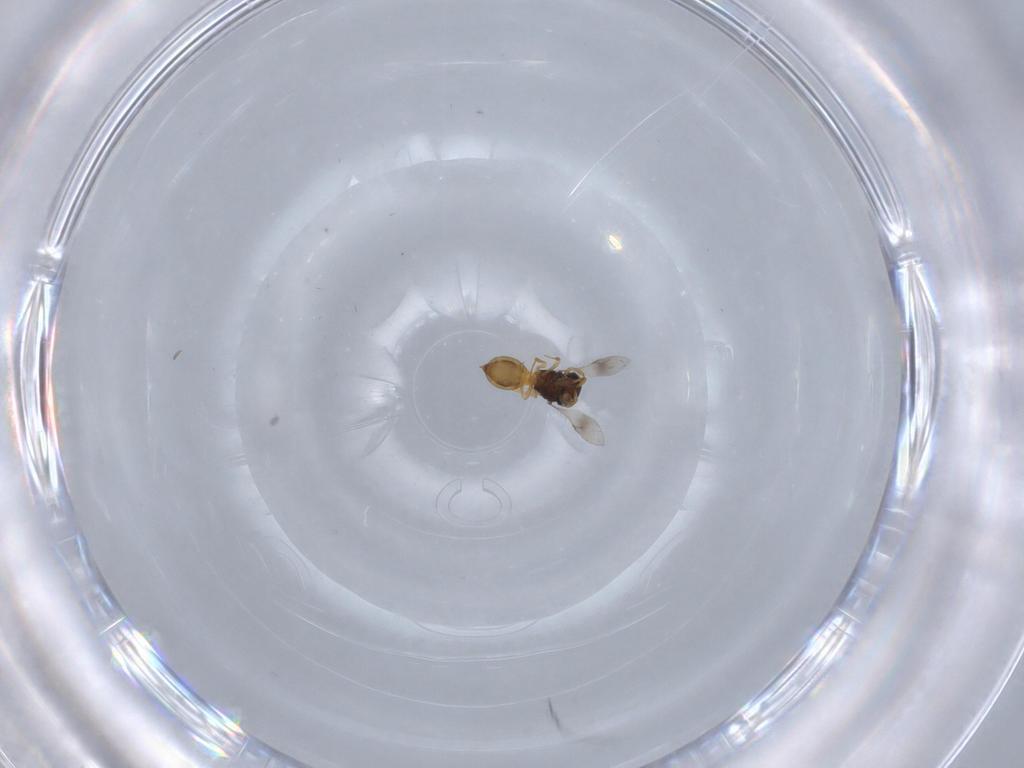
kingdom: Animalia
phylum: Arthropoda
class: Insecta
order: Hymenoptera
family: Scelionidae
